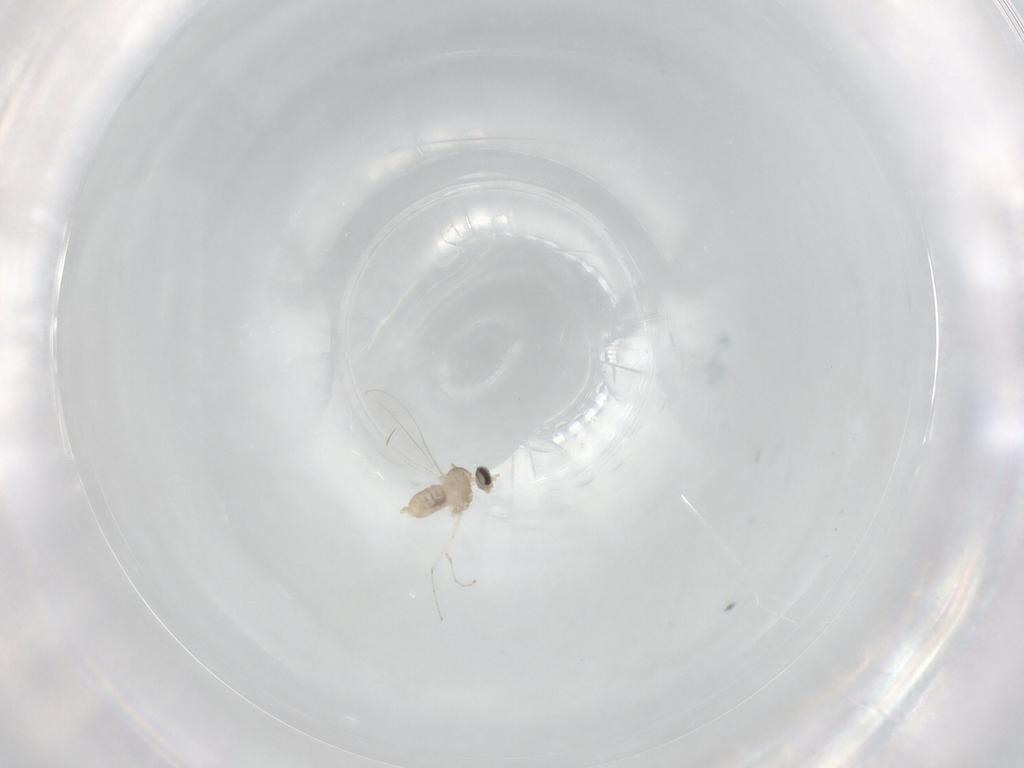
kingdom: Animalia
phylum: Arthropoda
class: Insecta
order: Diptera
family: Cecidomyiidae
